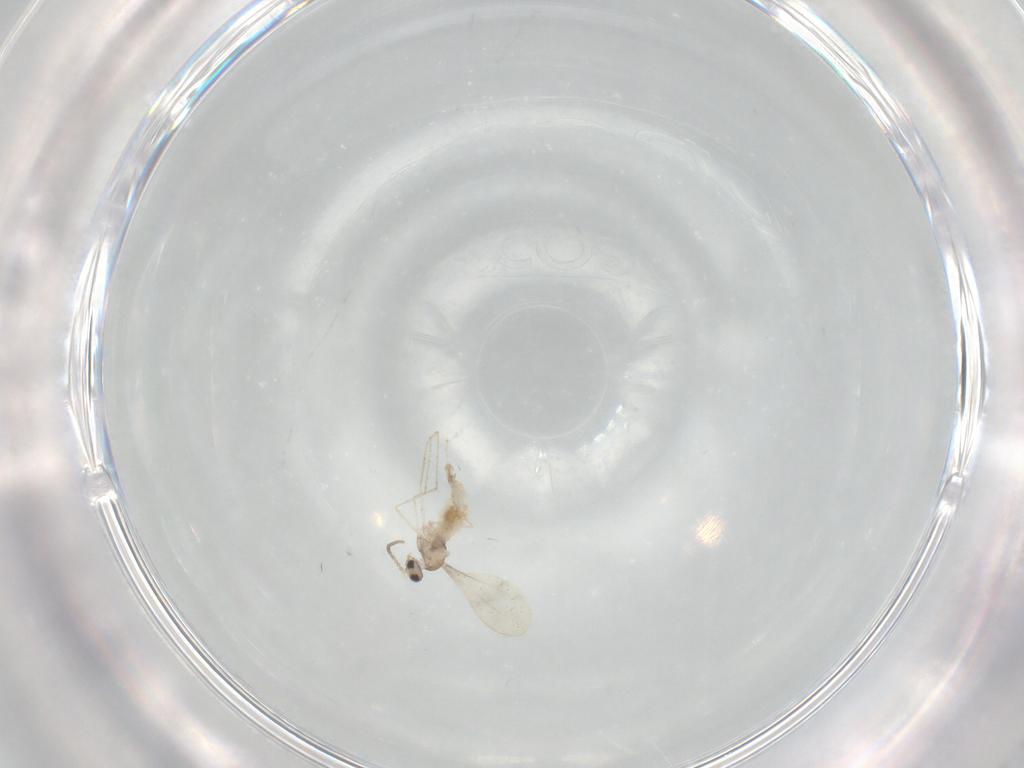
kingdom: Animalia
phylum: Arthropoda
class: Insecta
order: Diptera
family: Cecidomyiidae
